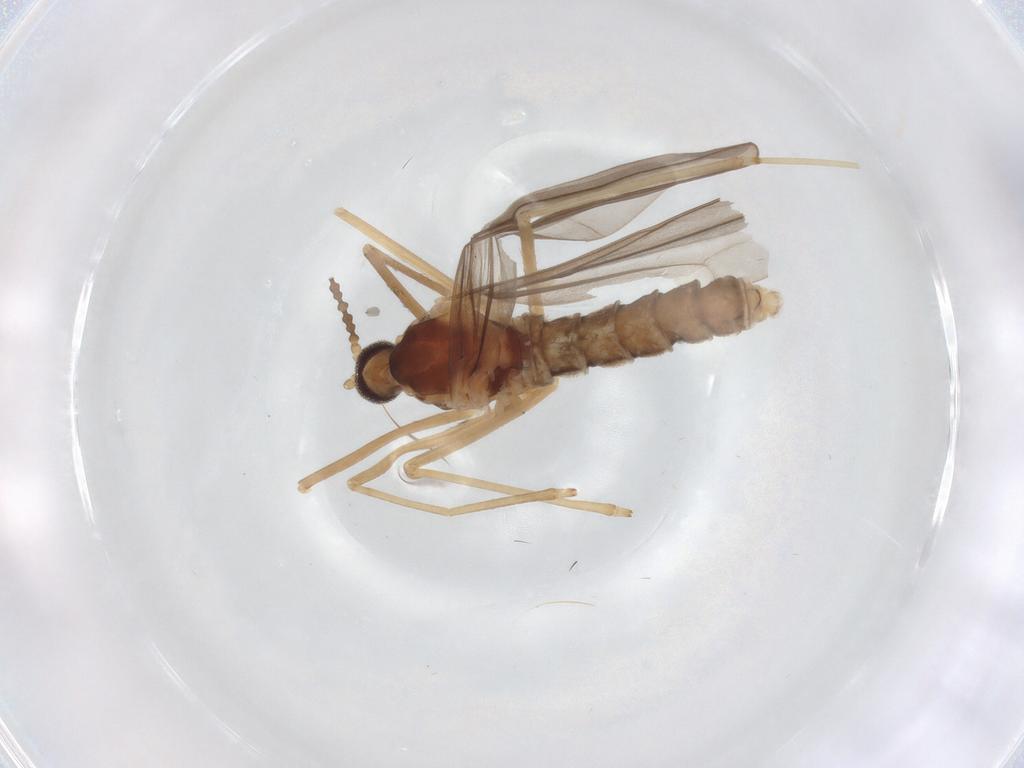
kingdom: Animalia
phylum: Arthropoda
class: Insecta
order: Diptera
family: Cecidomyiidae
